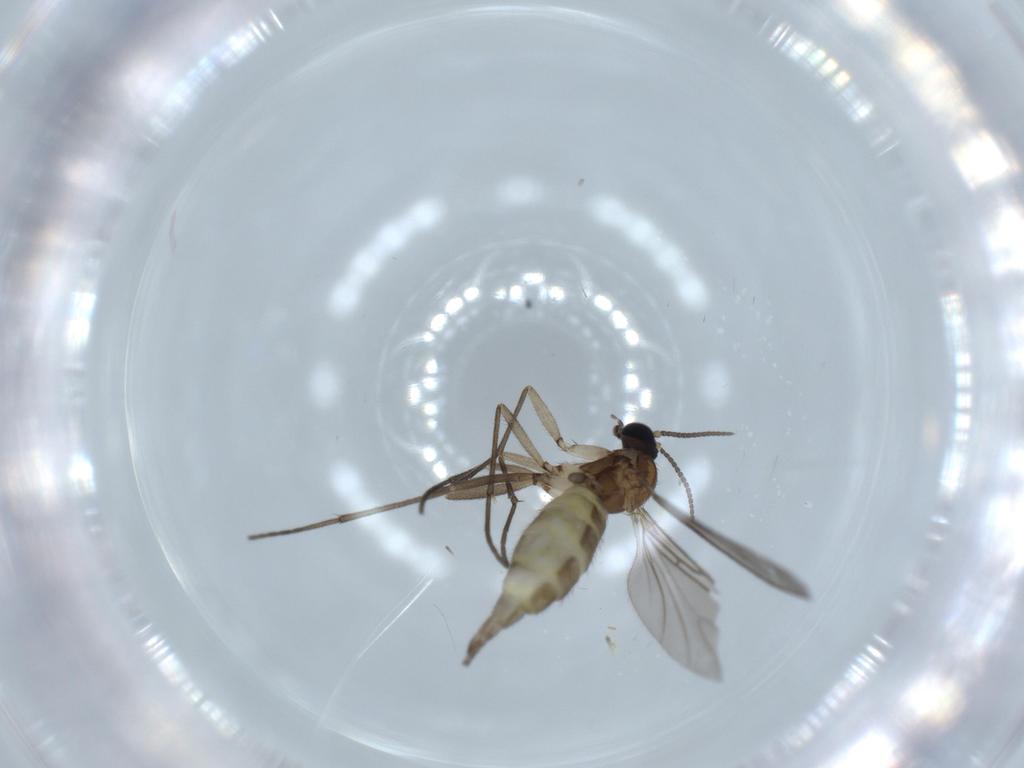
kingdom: Animalia
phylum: Arthropoda
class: Insecta
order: Diptera
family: Sciaridae
